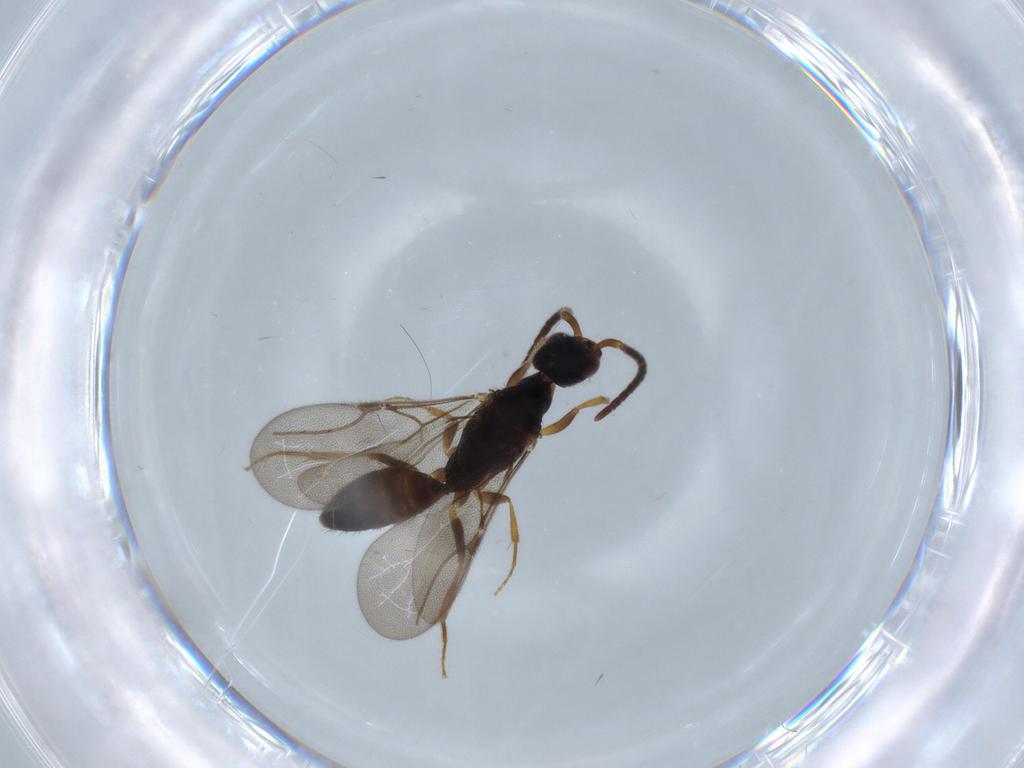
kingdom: Animalia
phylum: Arthropoda
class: Insecta
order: Hymenoptera
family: Bethylidae
